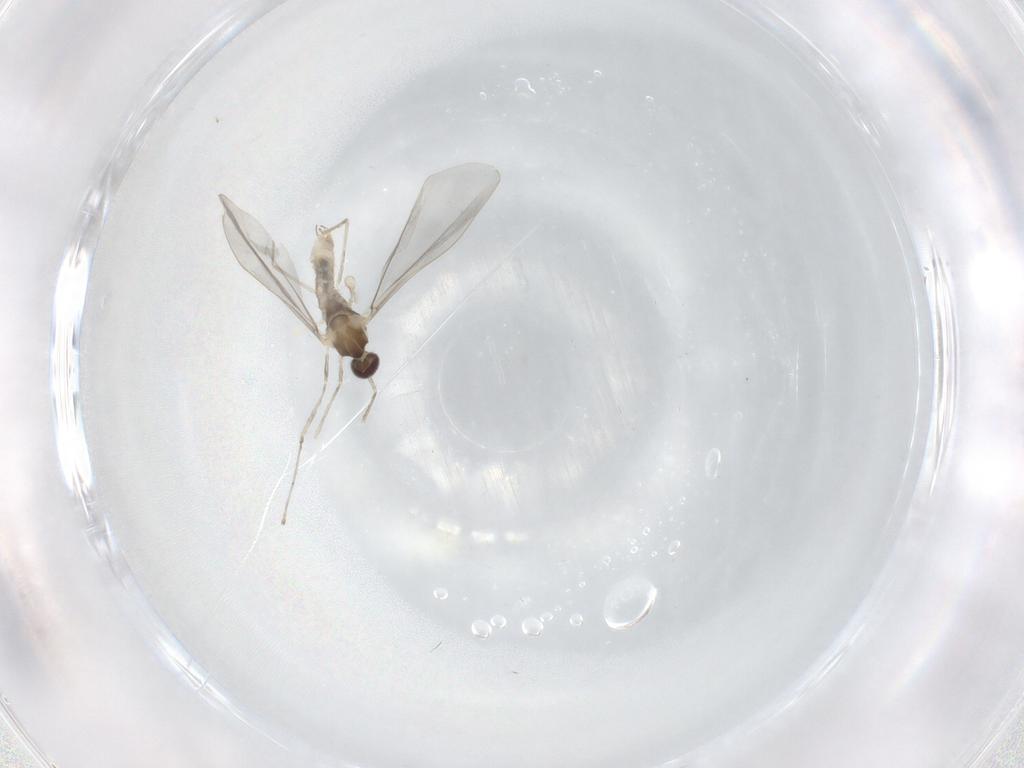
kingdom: Animalia
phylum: Arthropoda
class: Insecta
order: Diptera
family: Cecidomyiidae
